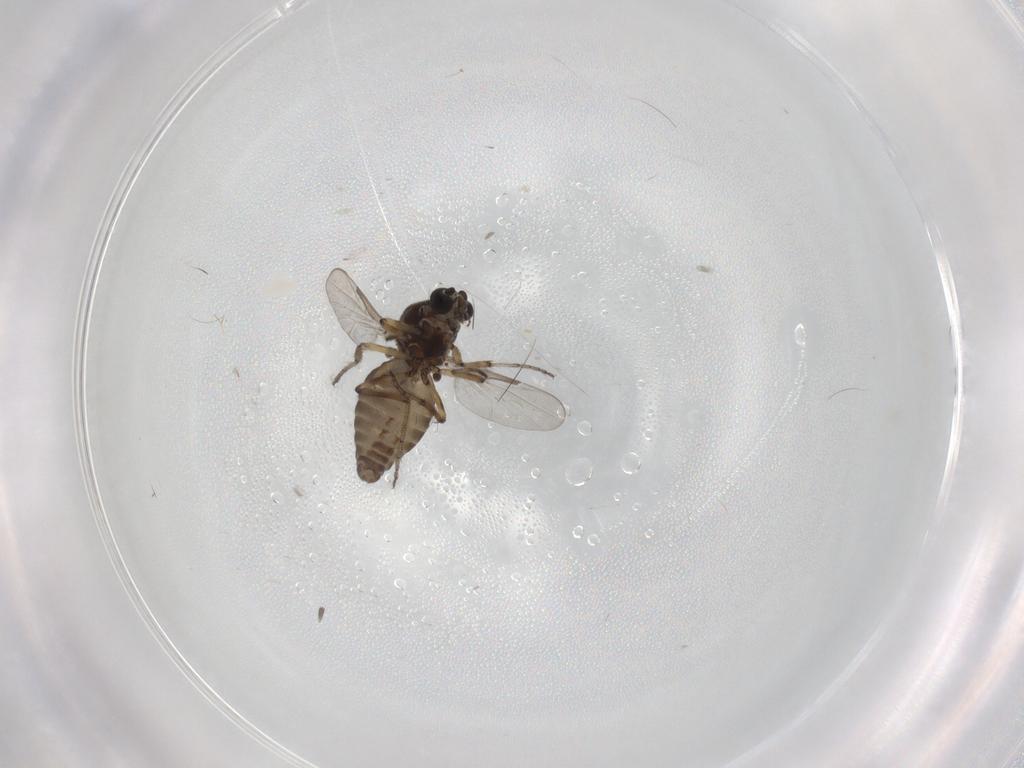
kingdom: Animalia
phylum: Arthropoda
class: Insecta
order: Diptera
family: Ceratopogonidae
